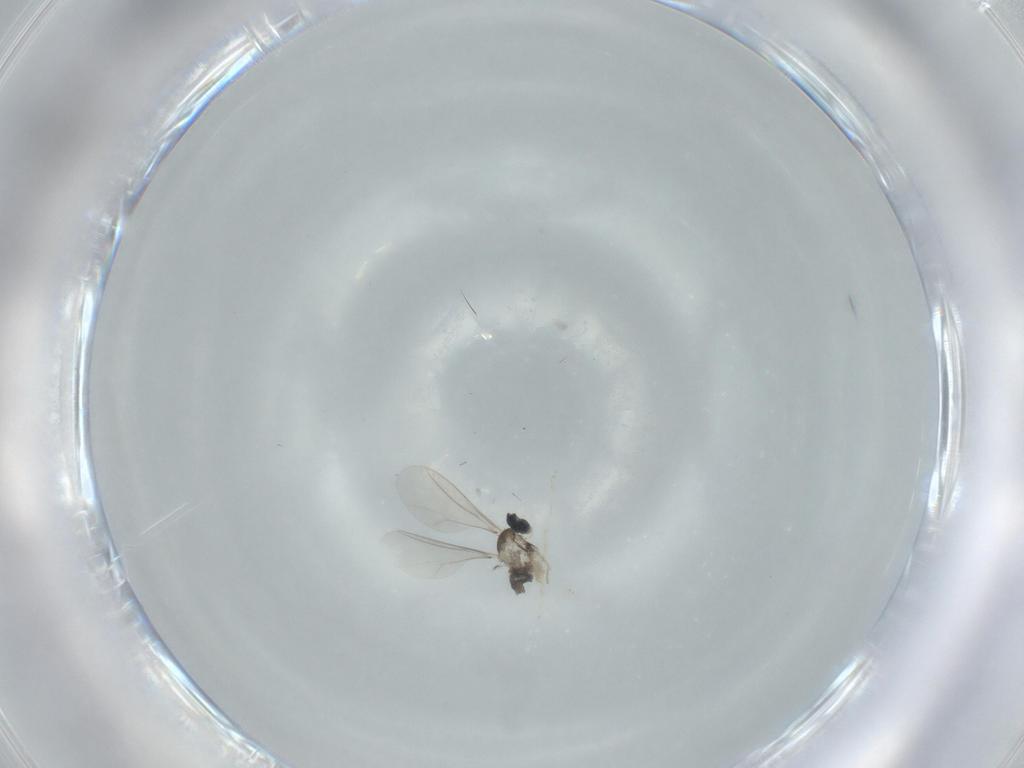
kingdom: Animalia
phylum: Arthropoda
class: Insecta
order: Diptera
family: Cecidomyiidae
